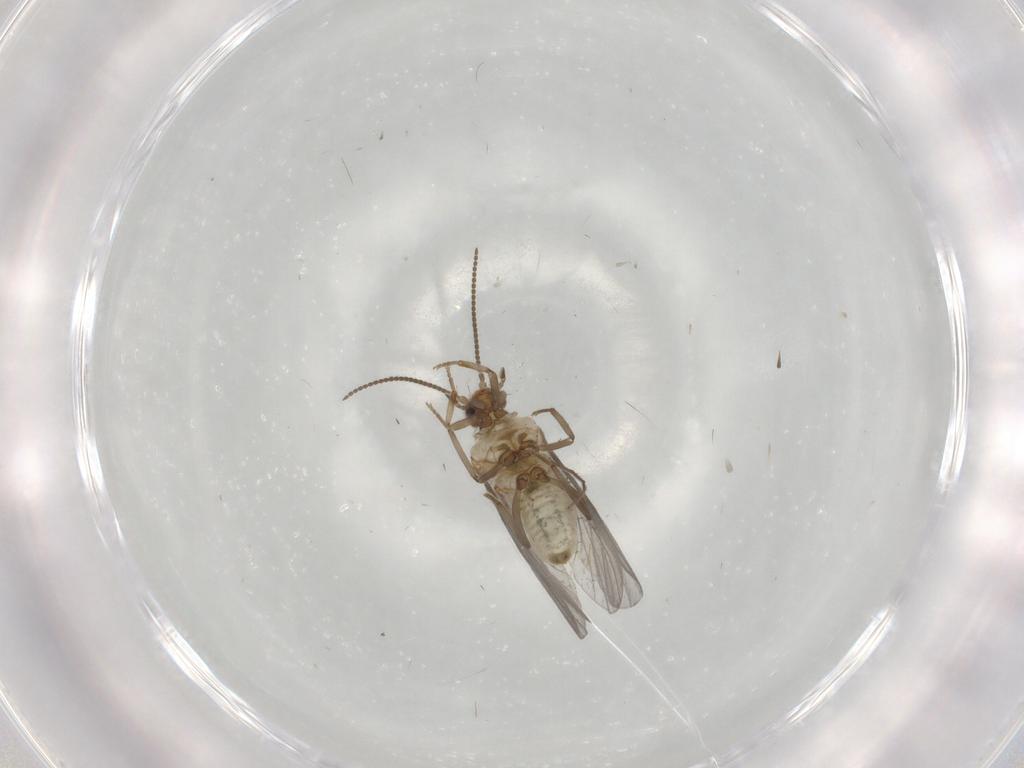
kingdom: Animalia
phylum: Arthropoda
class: Insecta
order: Neuroptera
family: Coniopterygidae
